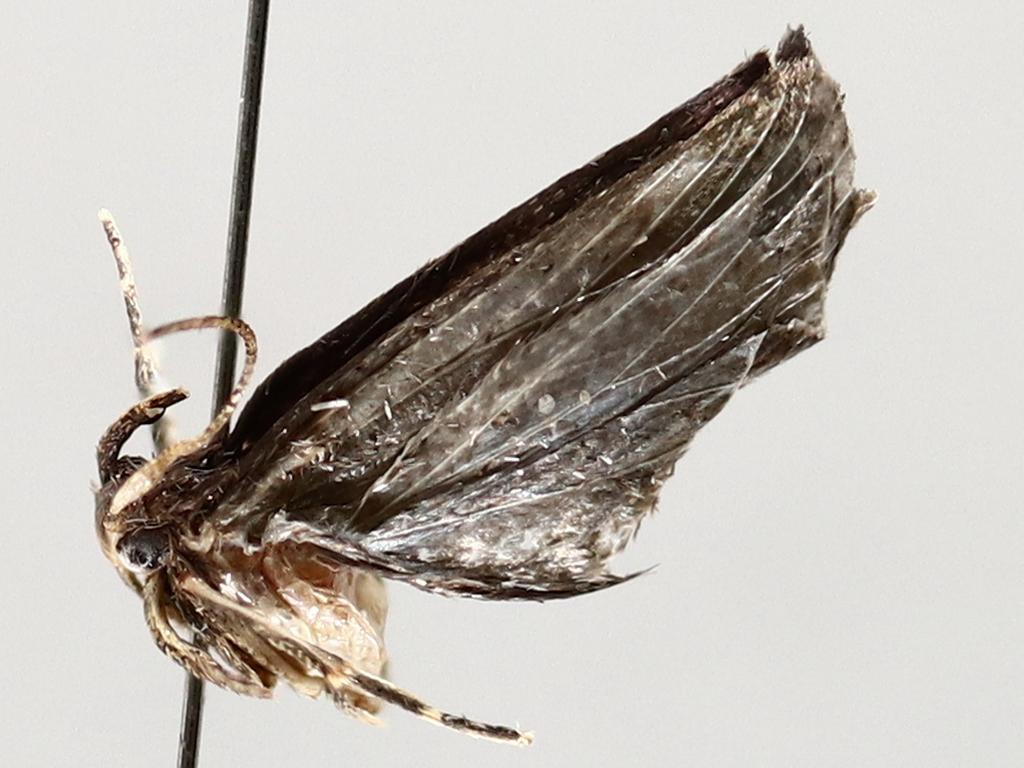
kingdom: Animalia
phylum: Arthropoda
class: Insecta
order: Diptera
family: Chironomidae
